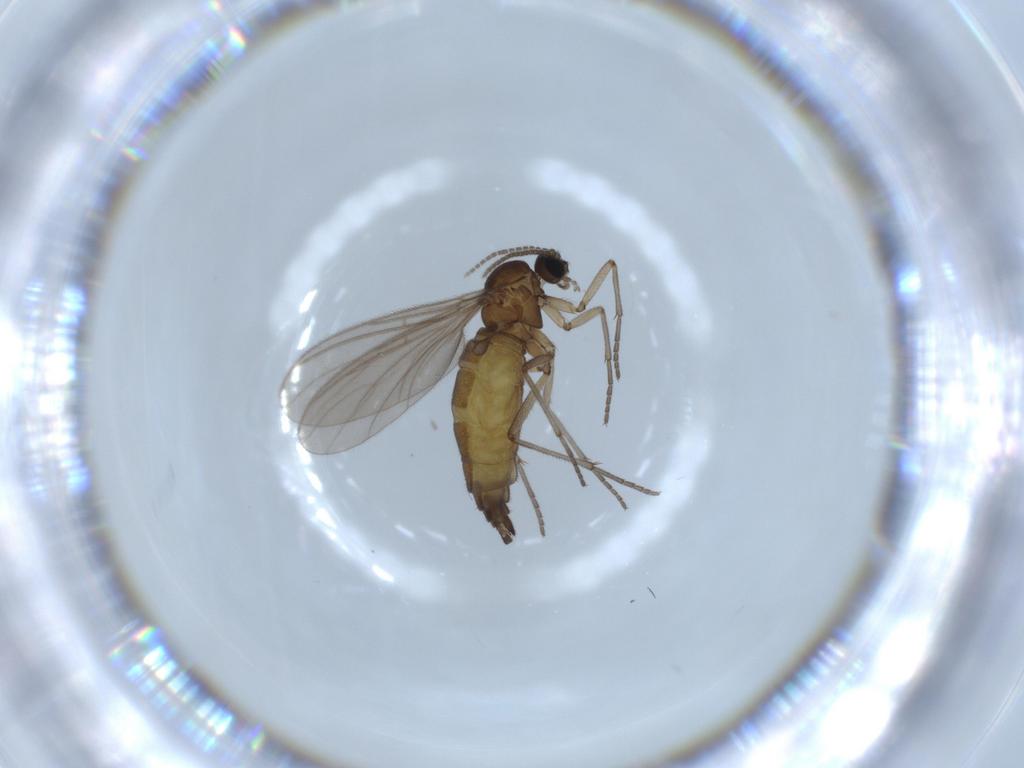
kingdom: Animalia
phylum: Arthropoda
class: Insecta
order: Diptera
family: Sciaridae
